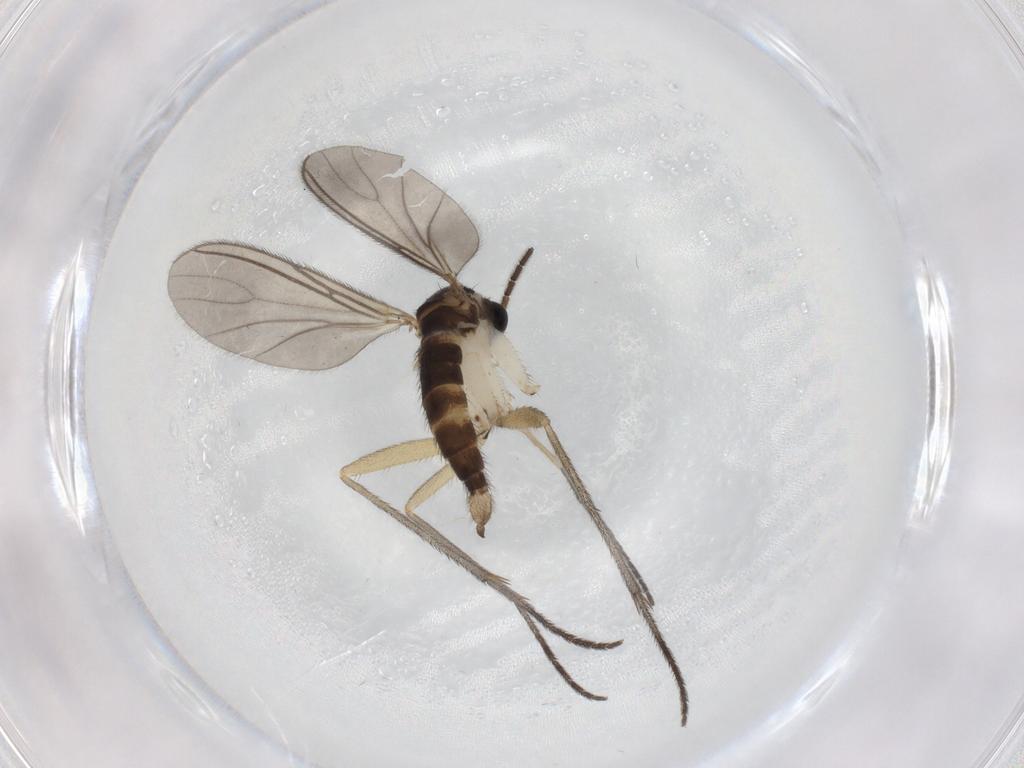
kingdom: Animalia
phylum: Arthropoda
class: Insecta
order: Diptera
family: Sciaridae
